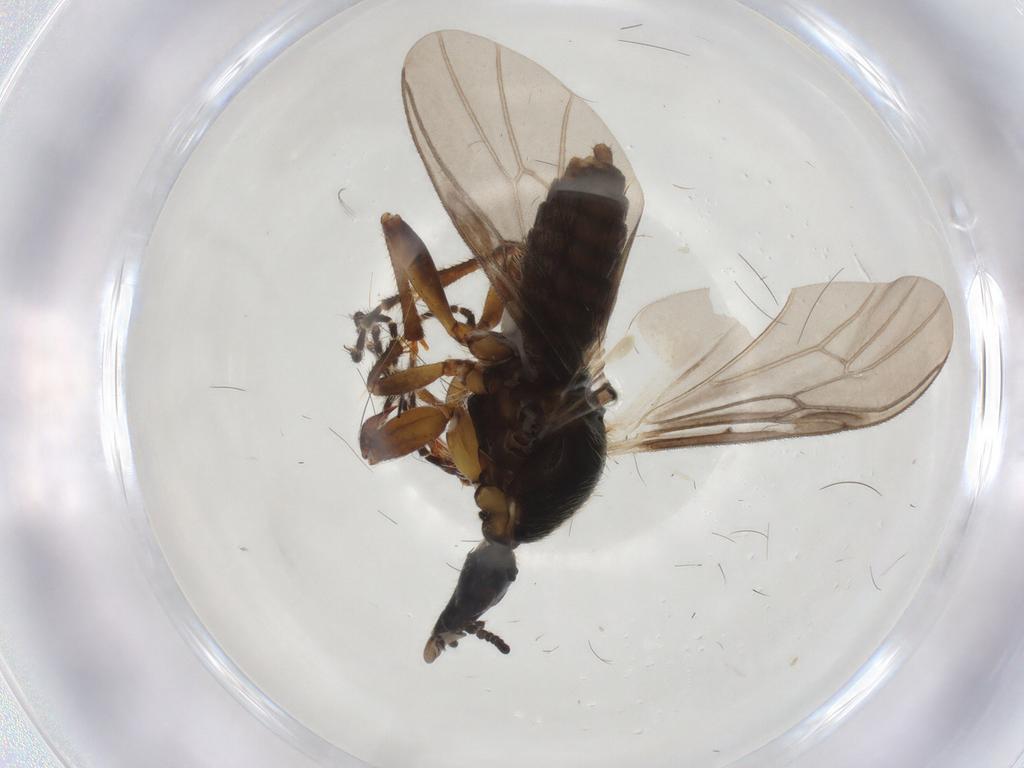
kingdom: Animalia
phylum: Arthropoda
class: Insecta
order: Diptera
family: Bibionidae
